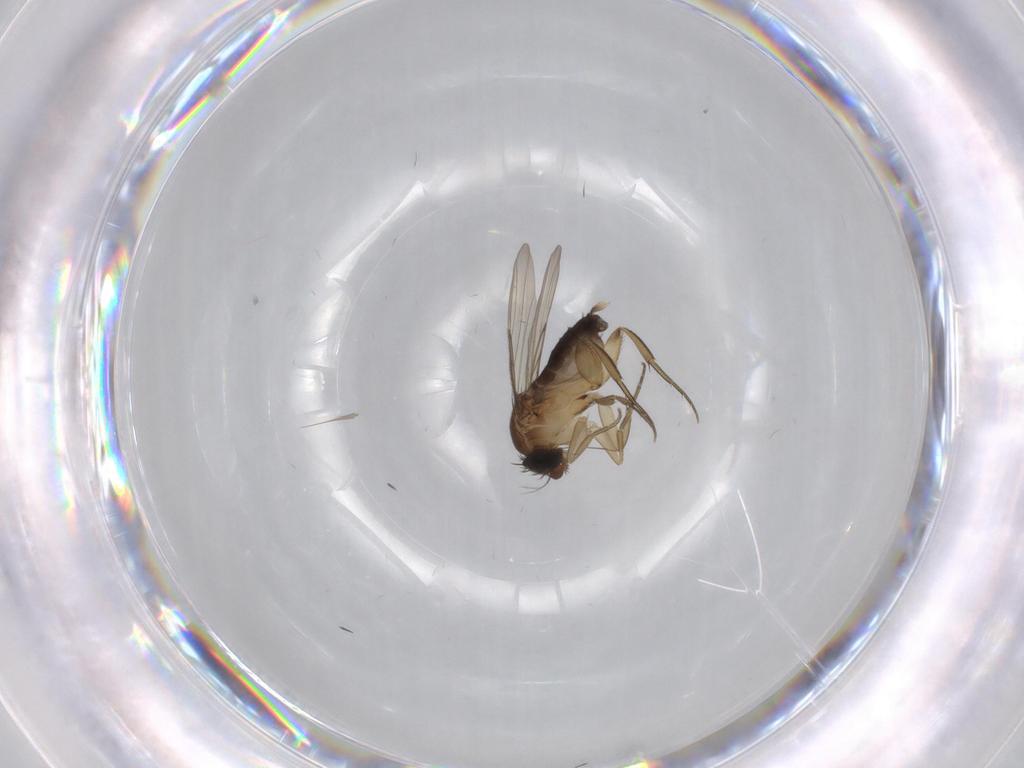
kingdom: Animalia
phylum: Arthropoda
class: Insecta
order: Diptera
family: Phoridae
